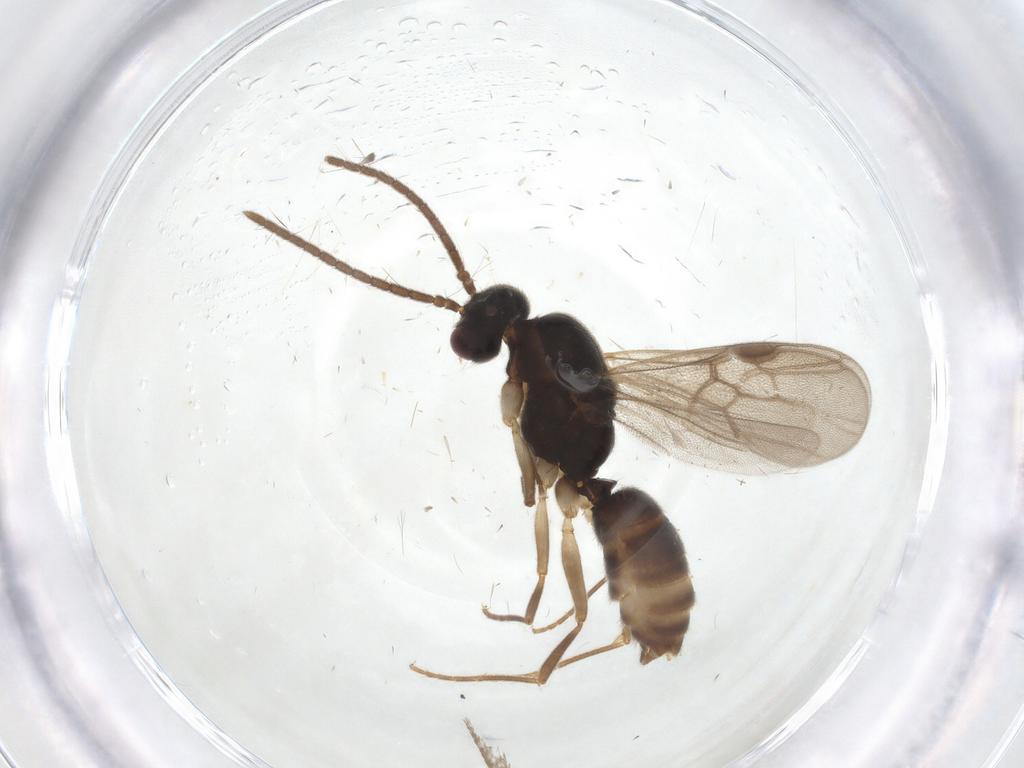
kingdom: Animalia
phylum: Arthropoda
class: Insecta
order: Hymenoptera
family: Formicidae
